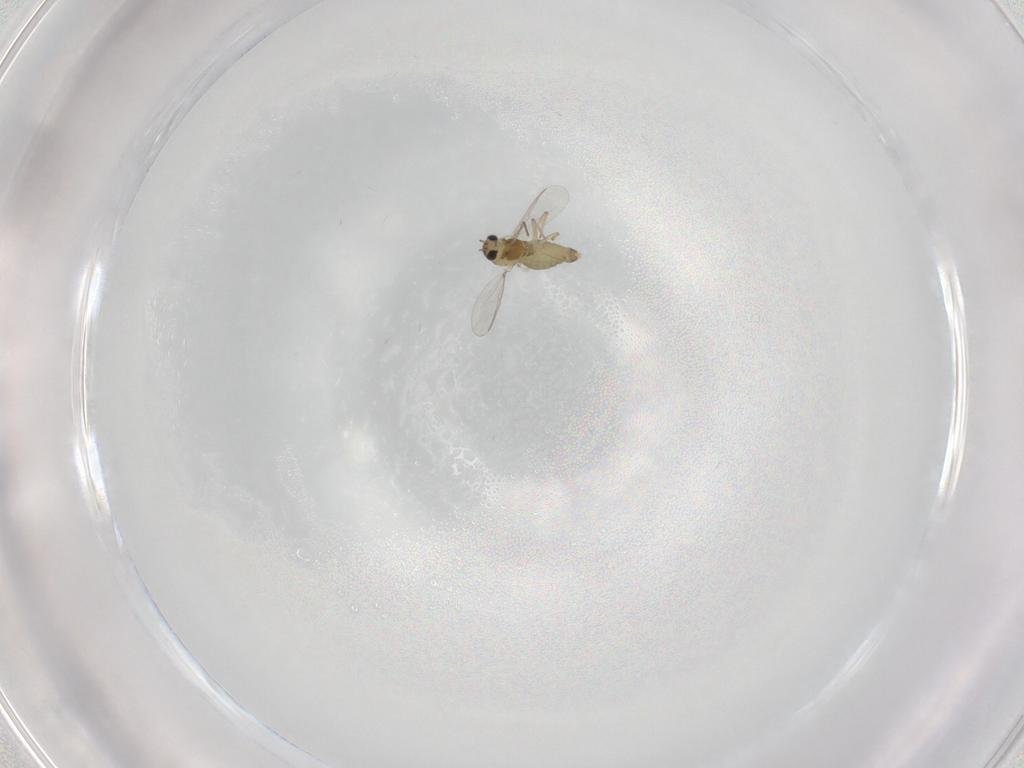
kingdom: Animalia
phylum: Arthropoda
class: Insecta
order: Diptera
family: Chironomidae
